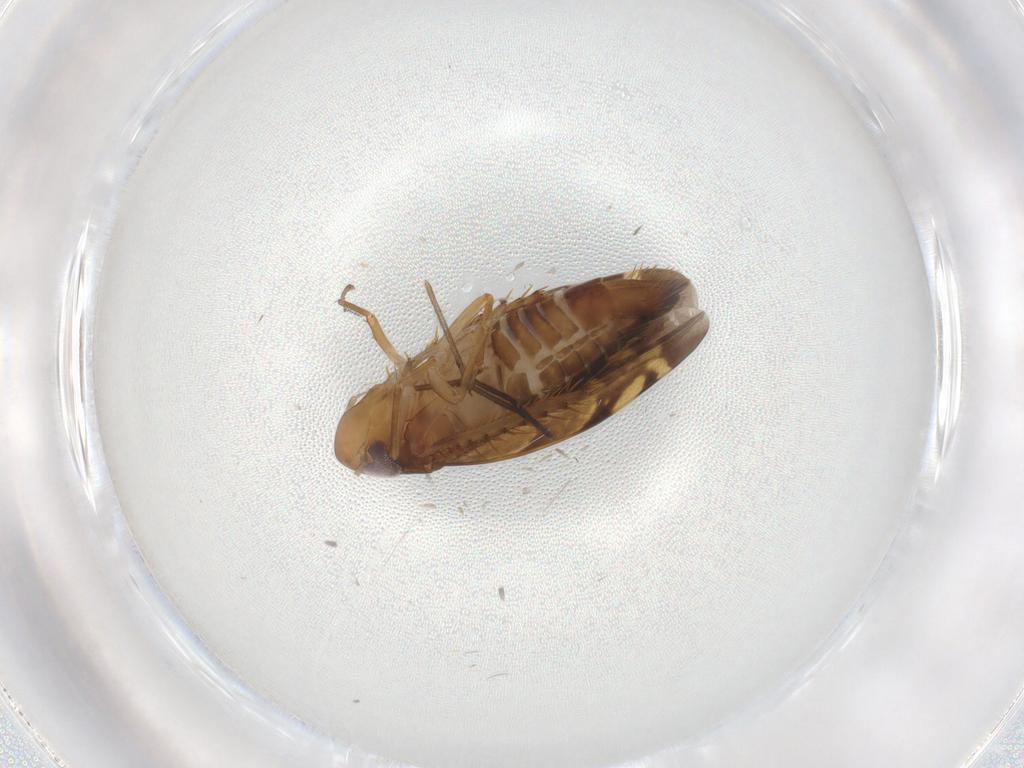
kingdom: Animalia
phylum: Arthropoda
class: Insecta
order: Hemiptera
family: Cicadellidae
